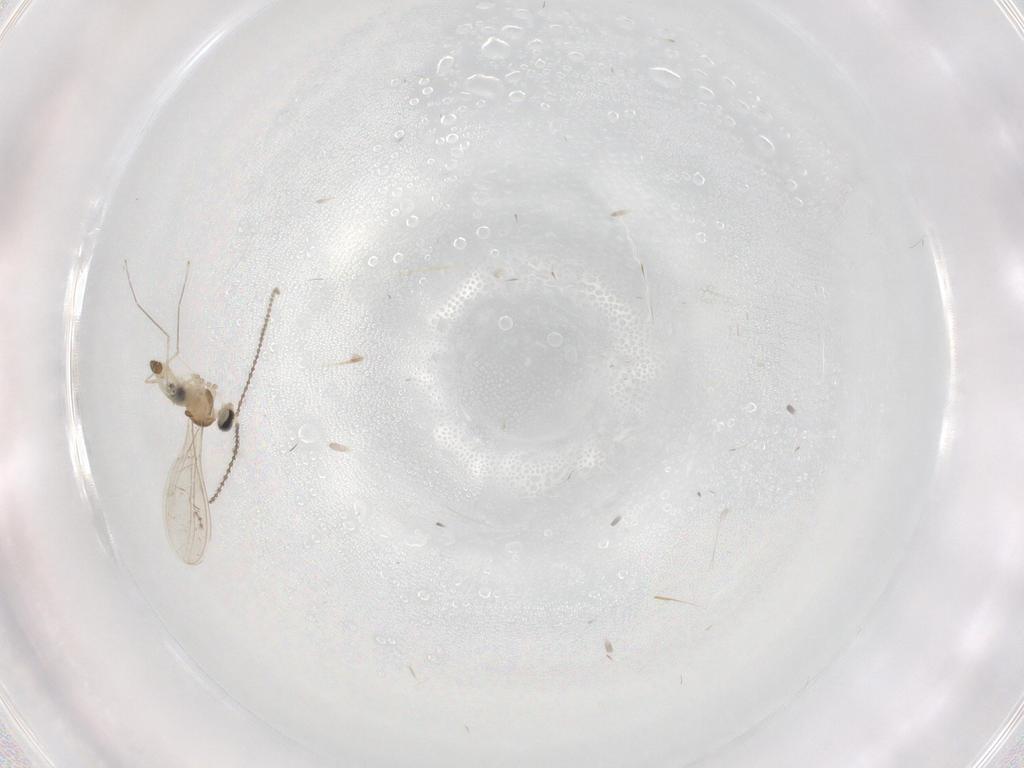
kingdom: Animalia
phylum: Arthropoda
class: Insecta
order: Diptera
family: Cecidomyiidae
